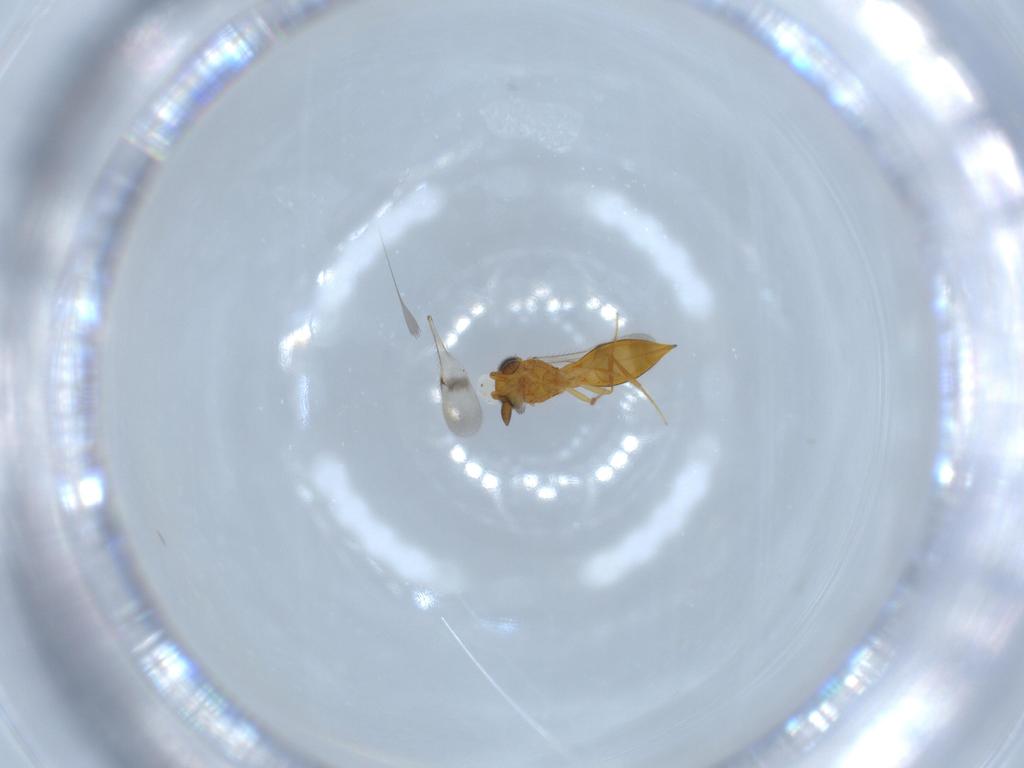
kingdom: Animalia
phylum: Arthropoda
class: Insecta
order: Hymenoptera
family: Scelionidae
